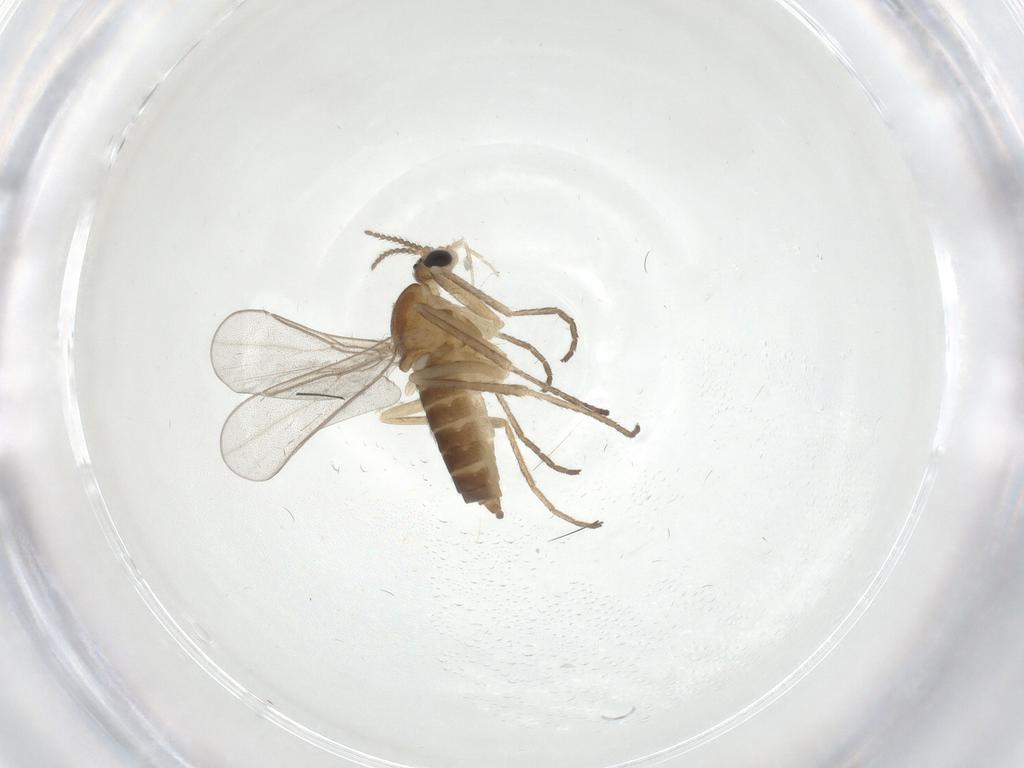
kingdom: Animalia
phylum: Arthropoda
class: Insecta
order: Diptera
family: Cecidomyiidae
